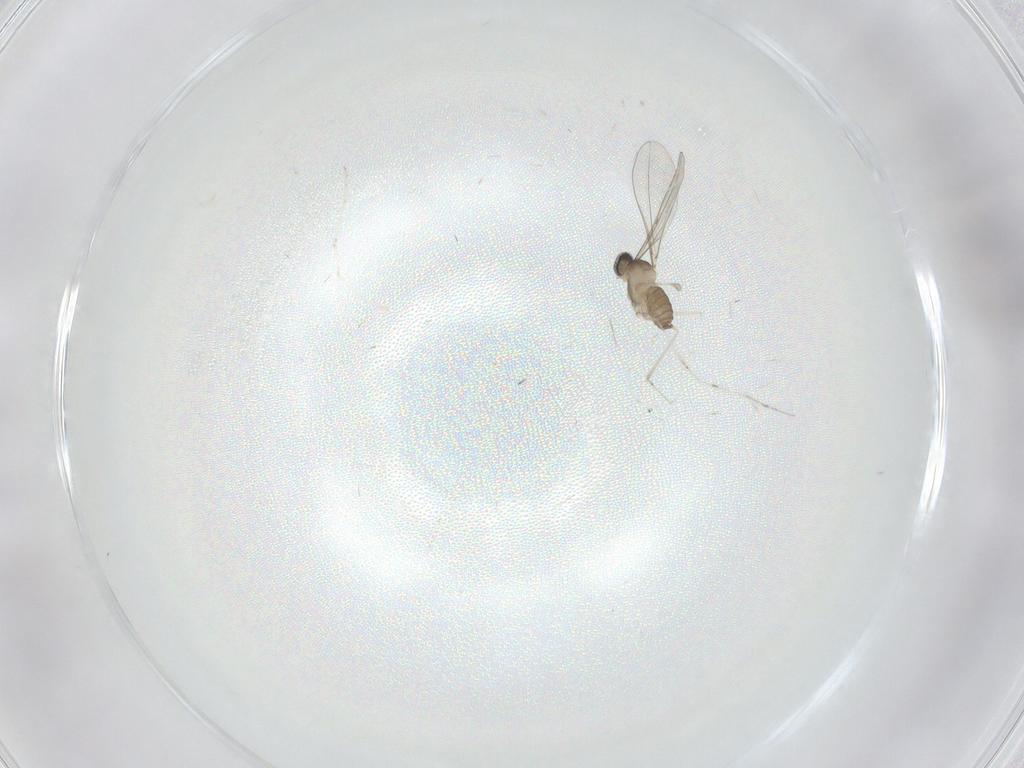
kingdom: Animalia
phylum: Arthropoda
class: Insecta
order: Diptera
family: Cecidomyiidae
